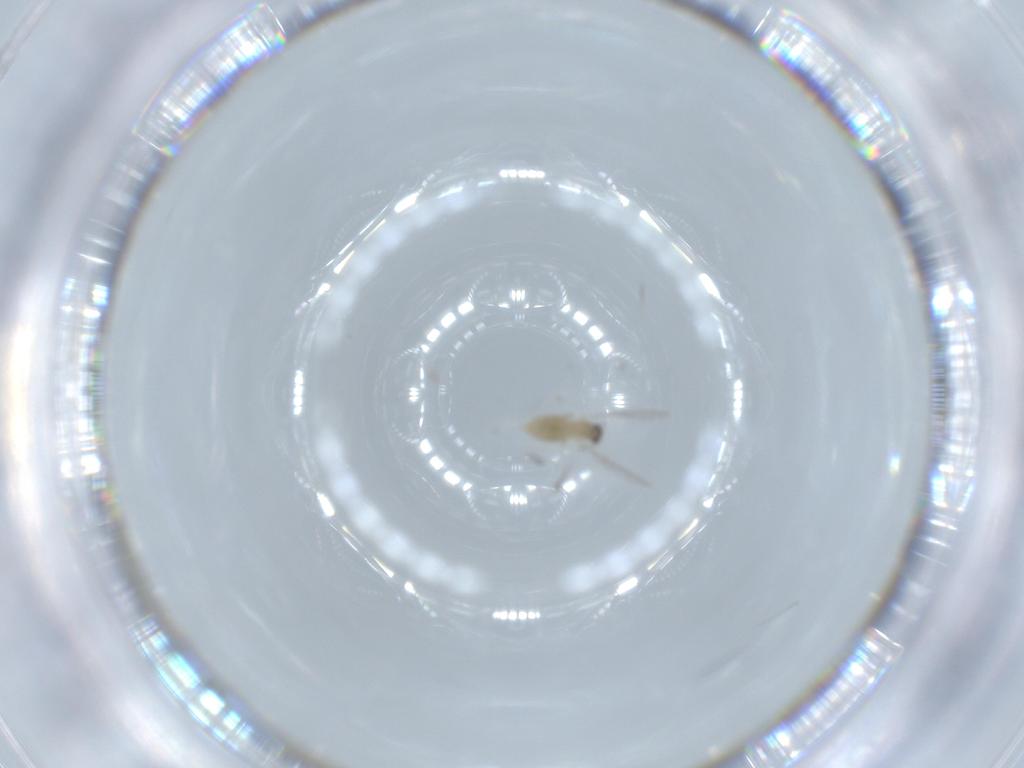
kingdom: Animalia
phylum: Arthropoda
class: Insecta
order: Diptera
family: Cecidomyiidae
